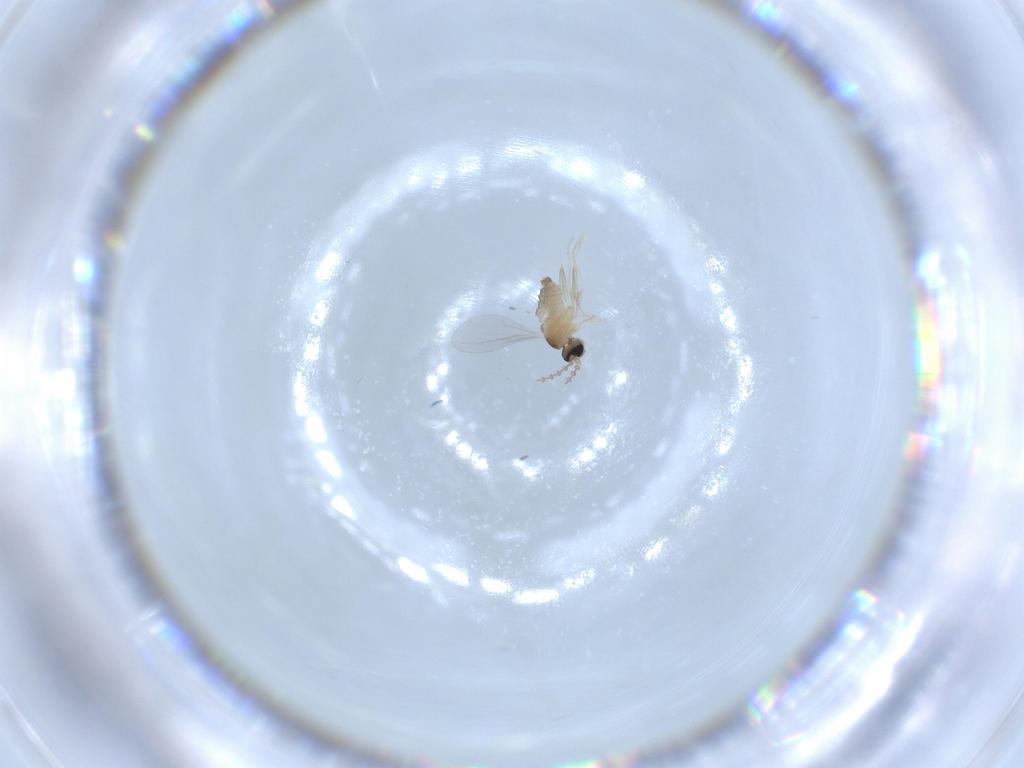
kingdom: Animalia
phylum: Arthropoda
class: Insecta
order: Diptera
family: Cecidomyiidae
